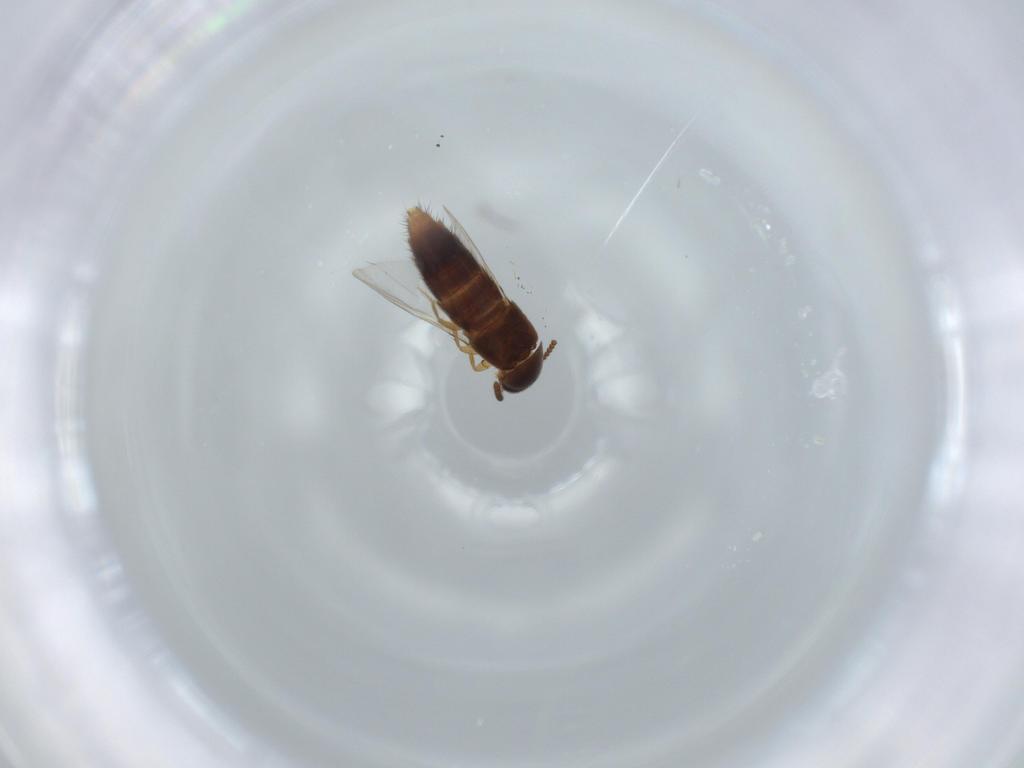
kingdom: Animalia
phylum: Arthropoda
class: Insecta
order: Coleoptera
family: Staphylinidae
